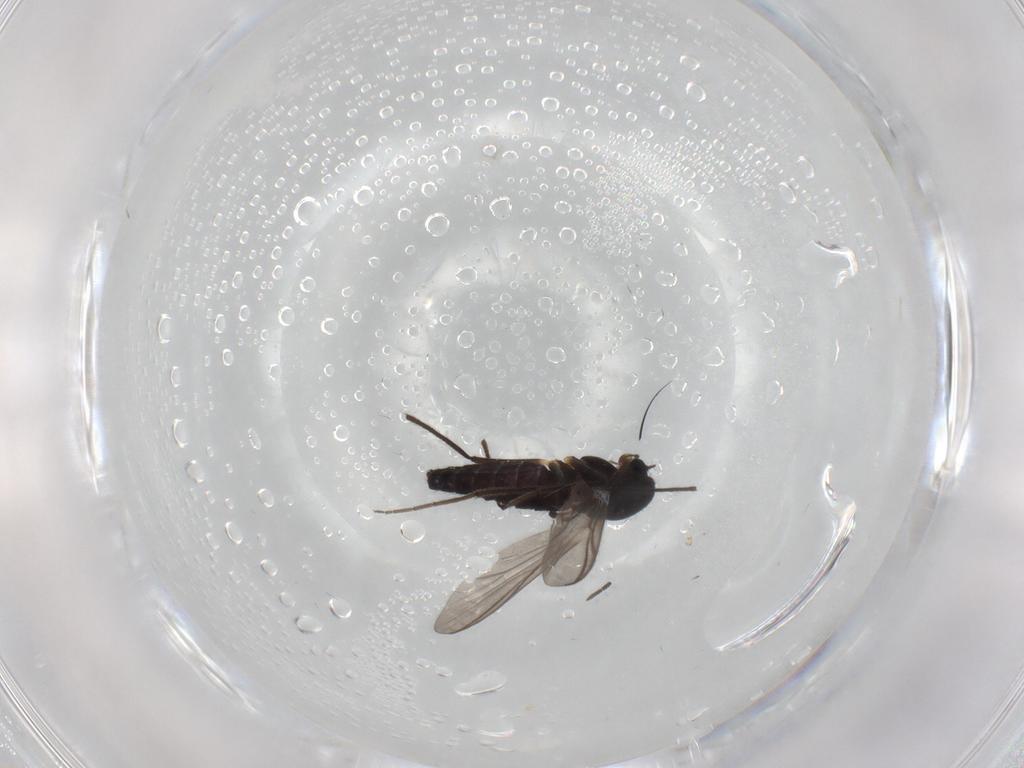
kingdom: Animalia
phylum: Arthropoda
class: Insecta
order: Diptera
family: Chironomidae
